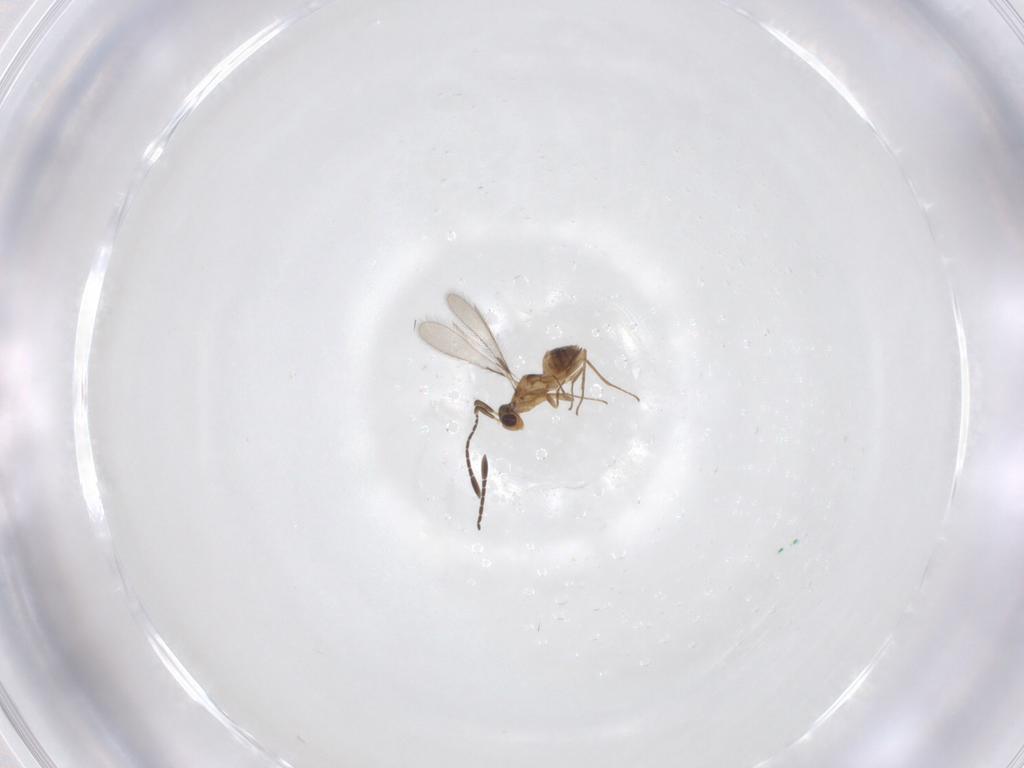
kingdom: Animalia
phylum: Arthropoda
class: Insecta
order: Hymenoptera
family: Mymaridae
